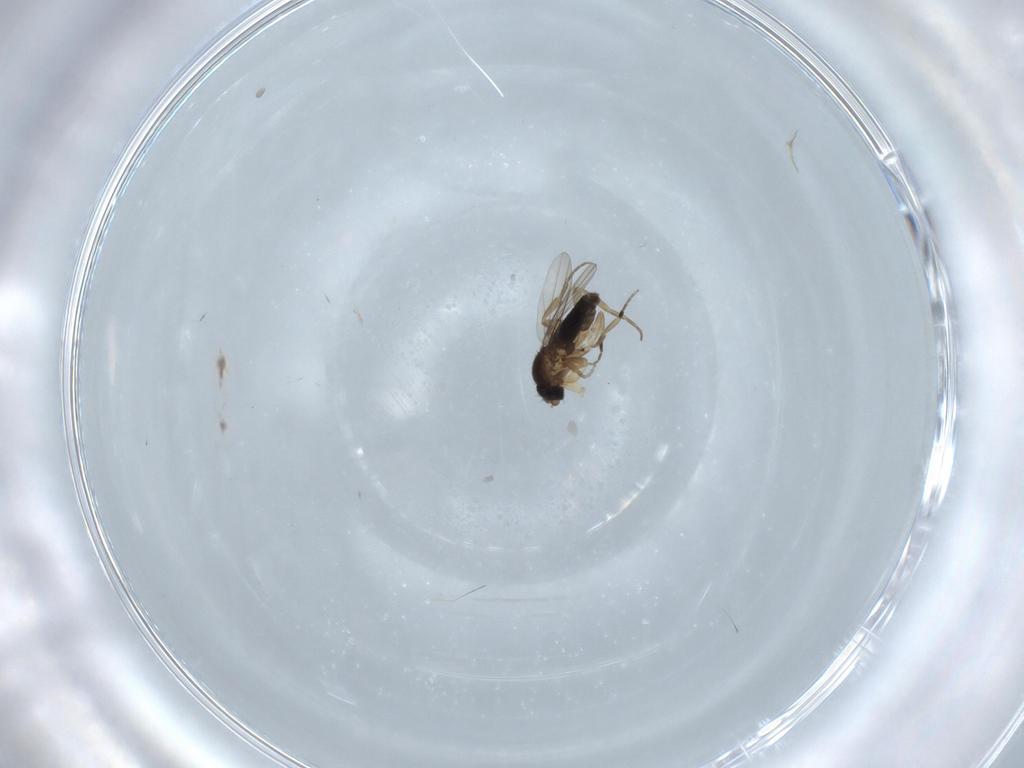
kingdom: Animalia
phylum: Arthropoda
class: Insecta
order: Diptera
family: Phoridae
